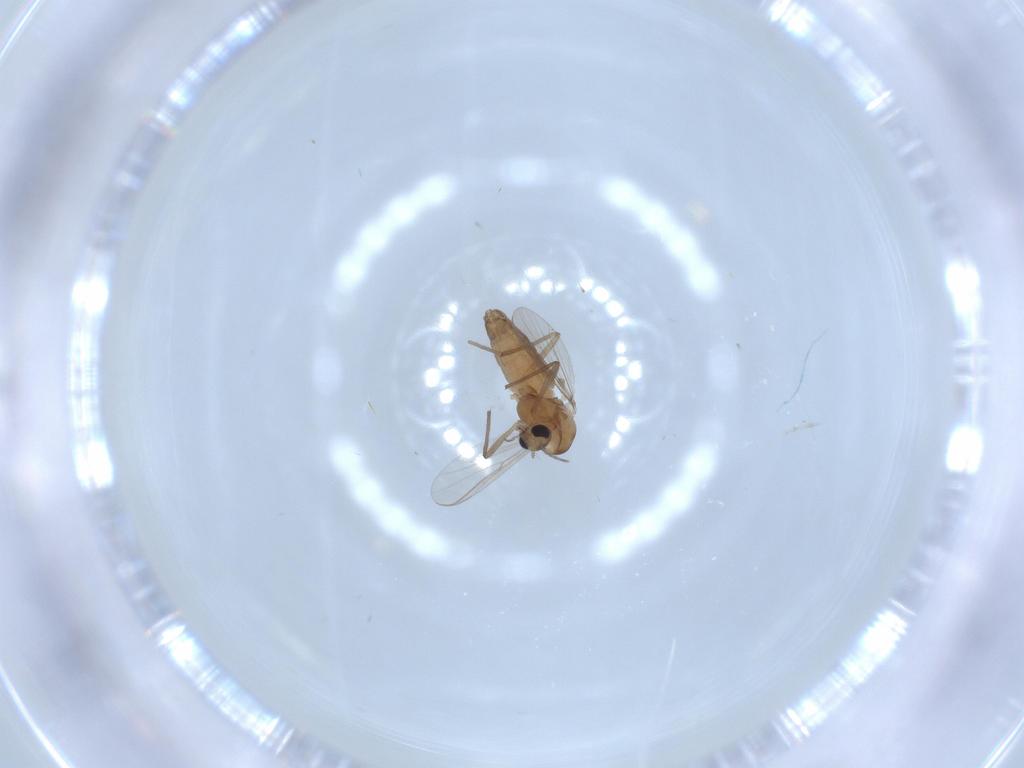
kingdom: Animalia
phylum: Arthropoda
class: Insecta
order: Diptera
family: Chironomidae
